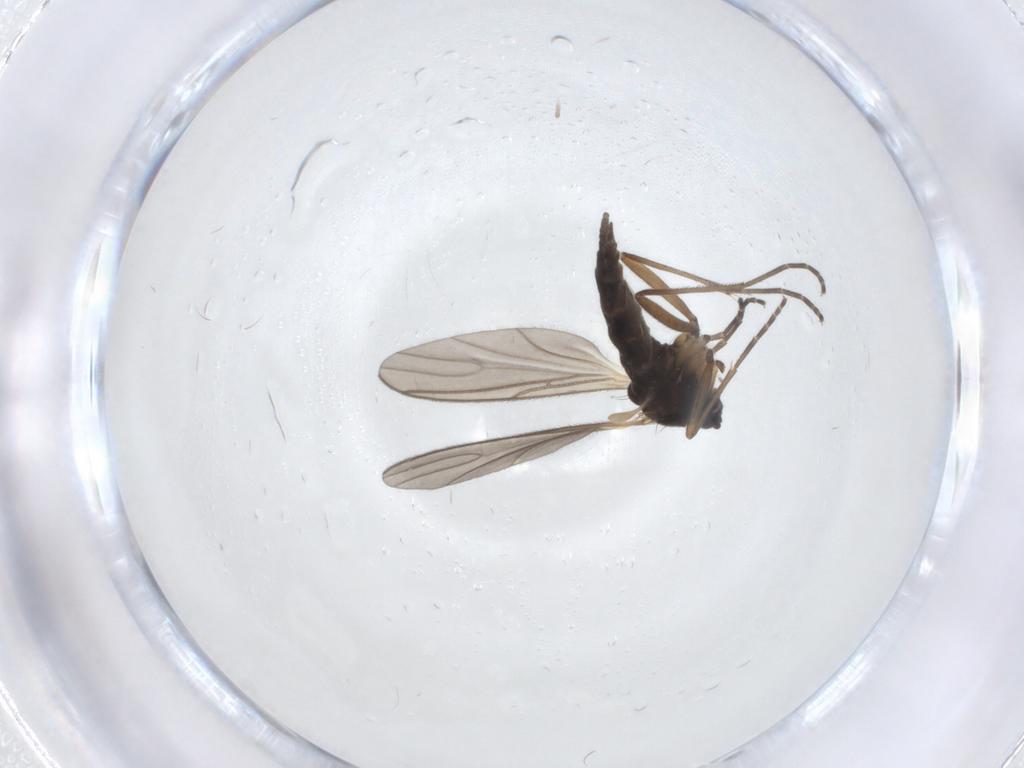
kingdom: Animalia
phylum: Arthropoda
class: Insecta
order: Diptera
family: Sciaridae
